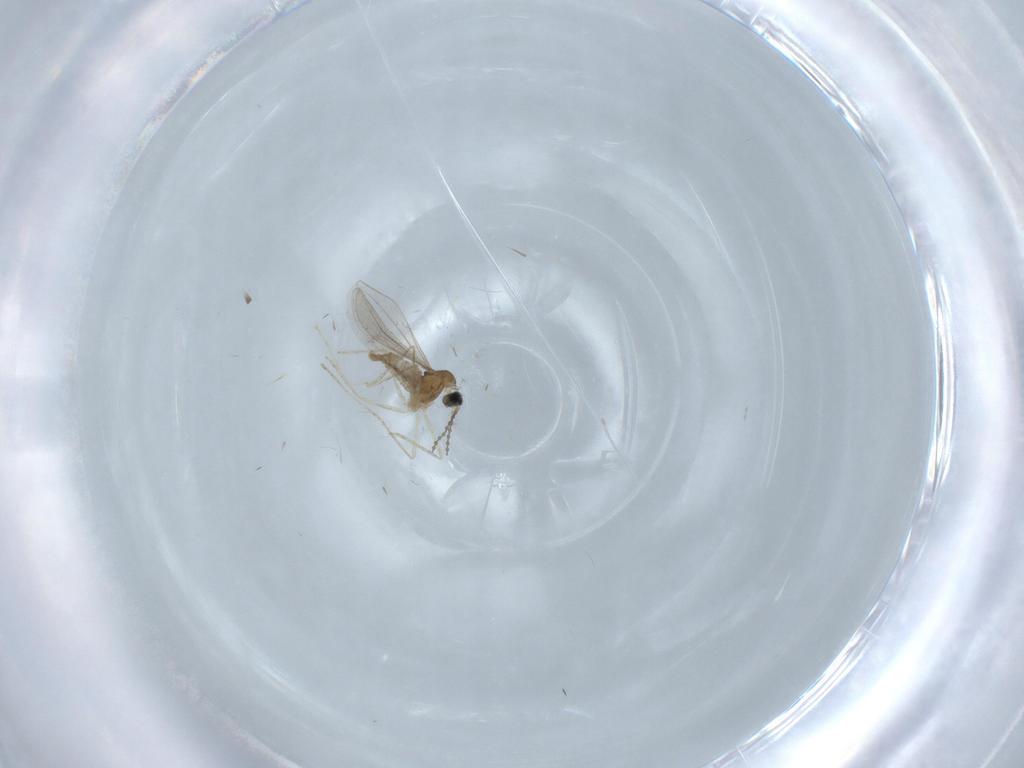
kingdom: Animalia
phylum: Arthropoda
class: Insecta
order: Diptera
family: Cecidomyiidae
